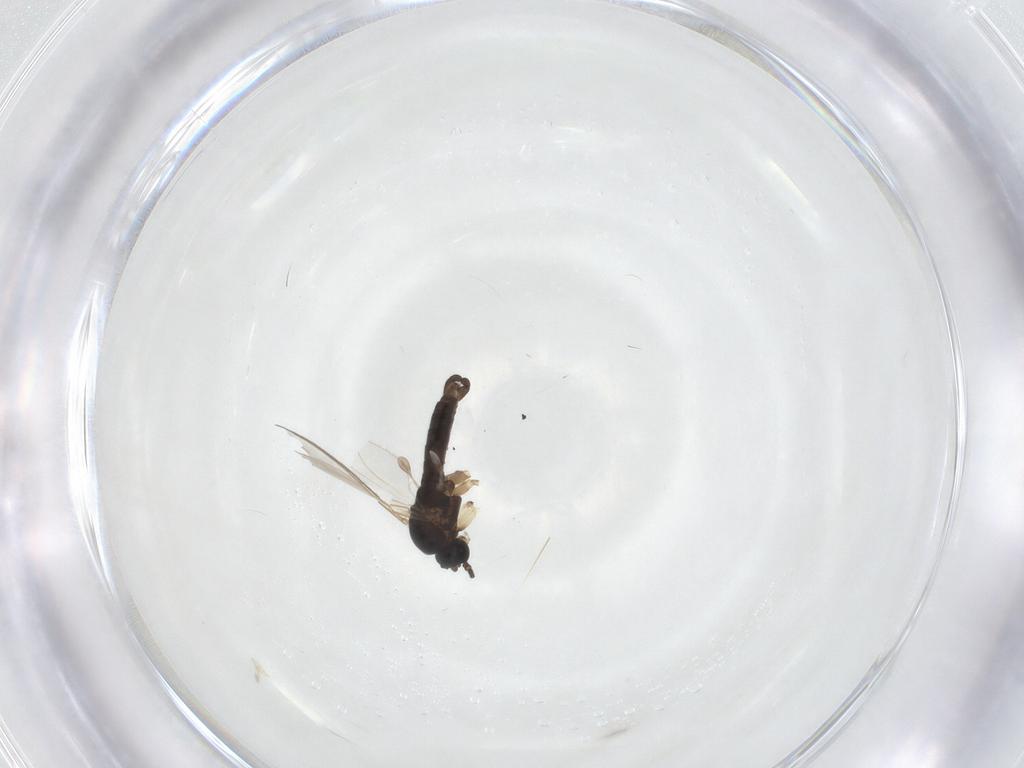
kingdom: Animalia
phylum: Arthropoda
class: Insecta
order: Diptera
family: Sciaridae
